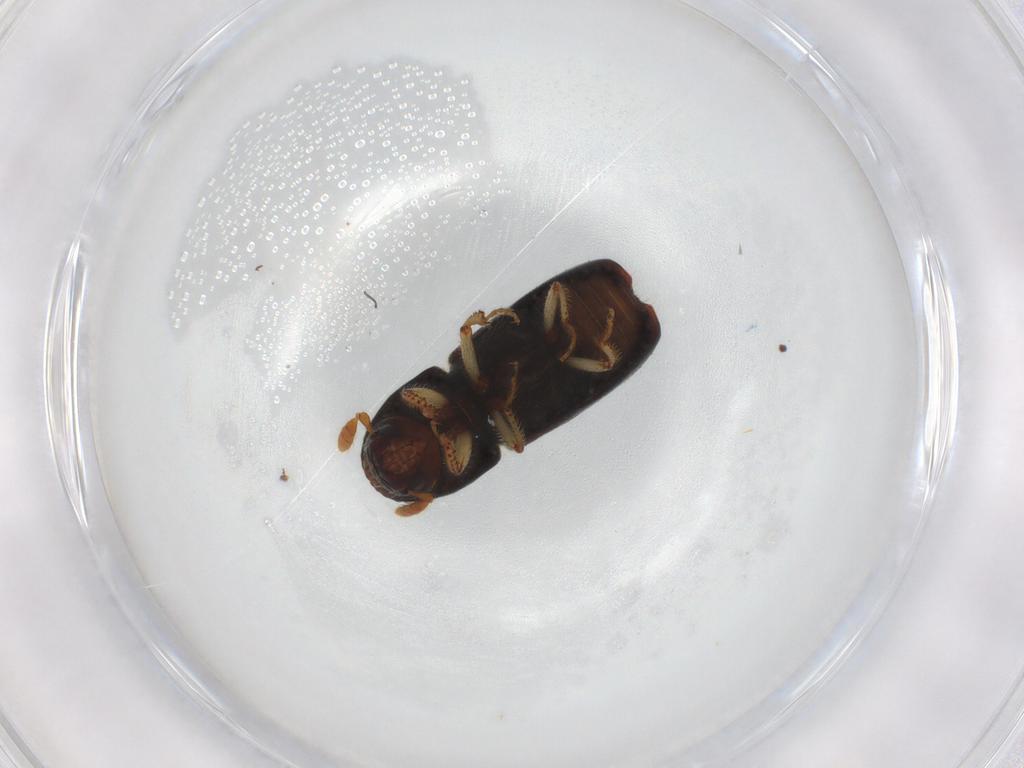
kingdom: Animalia
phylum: Arthropoda
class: Insecta
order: Coleoptera
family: Curculionidae
